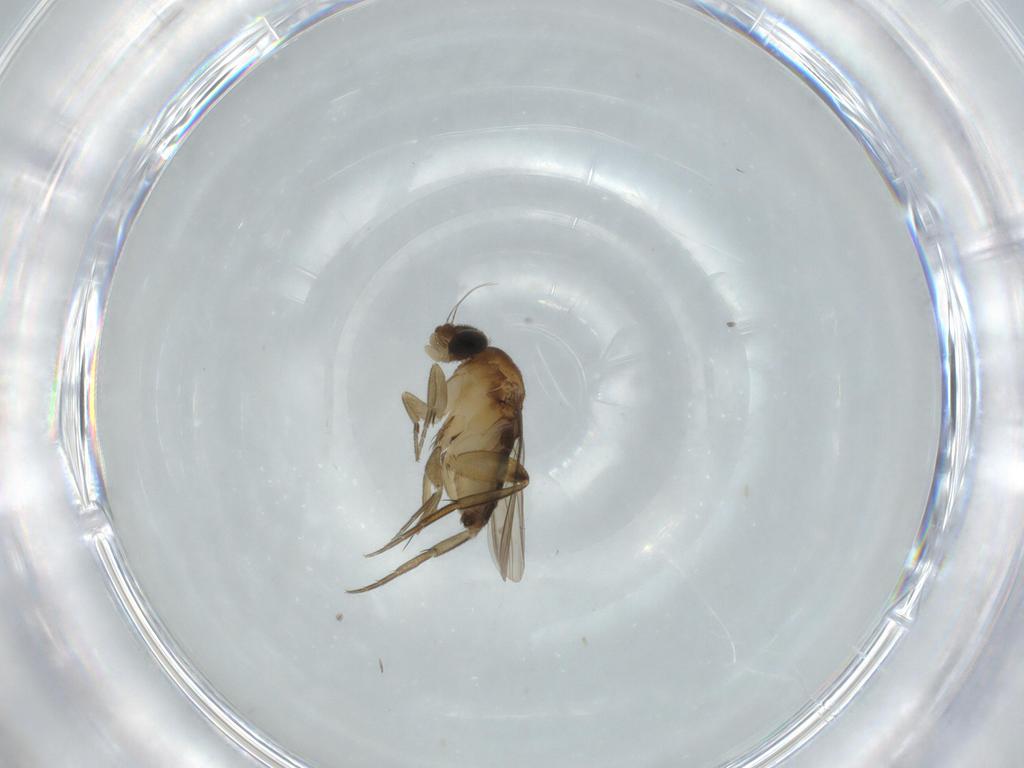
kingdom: Animalia
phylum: Arthropoda
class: Insecta
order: Diptera
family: Phoridae
